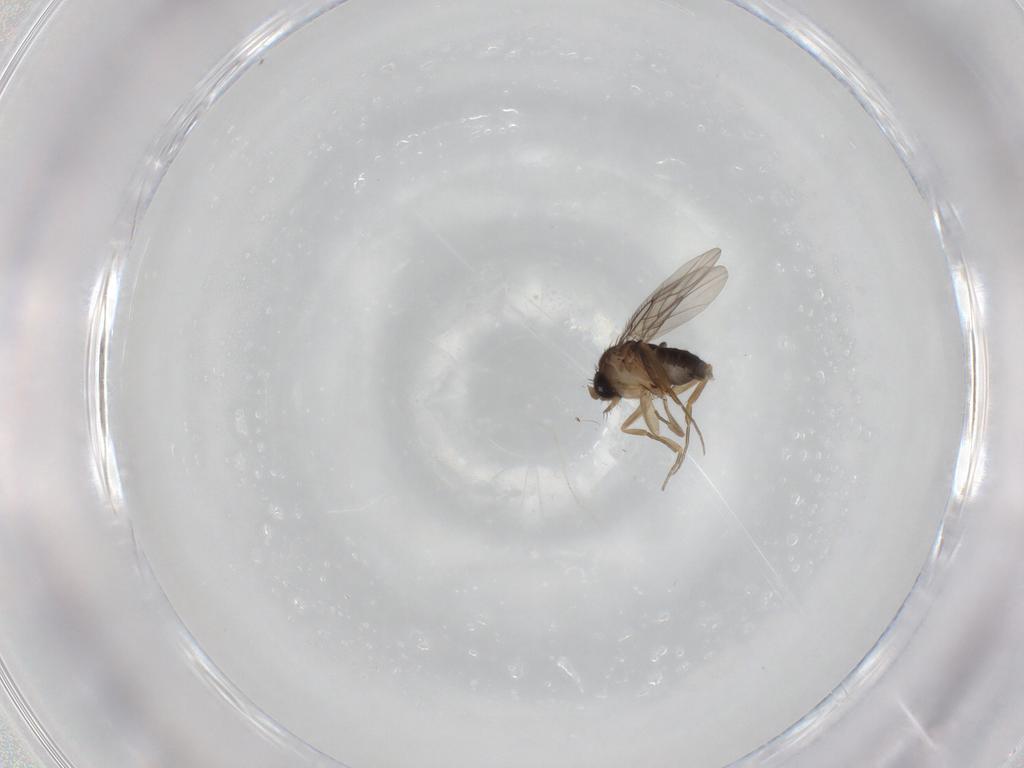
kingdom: Animalia
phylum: Arthropoda
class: Insecta
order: Diptera
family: Cecidomyiidae
